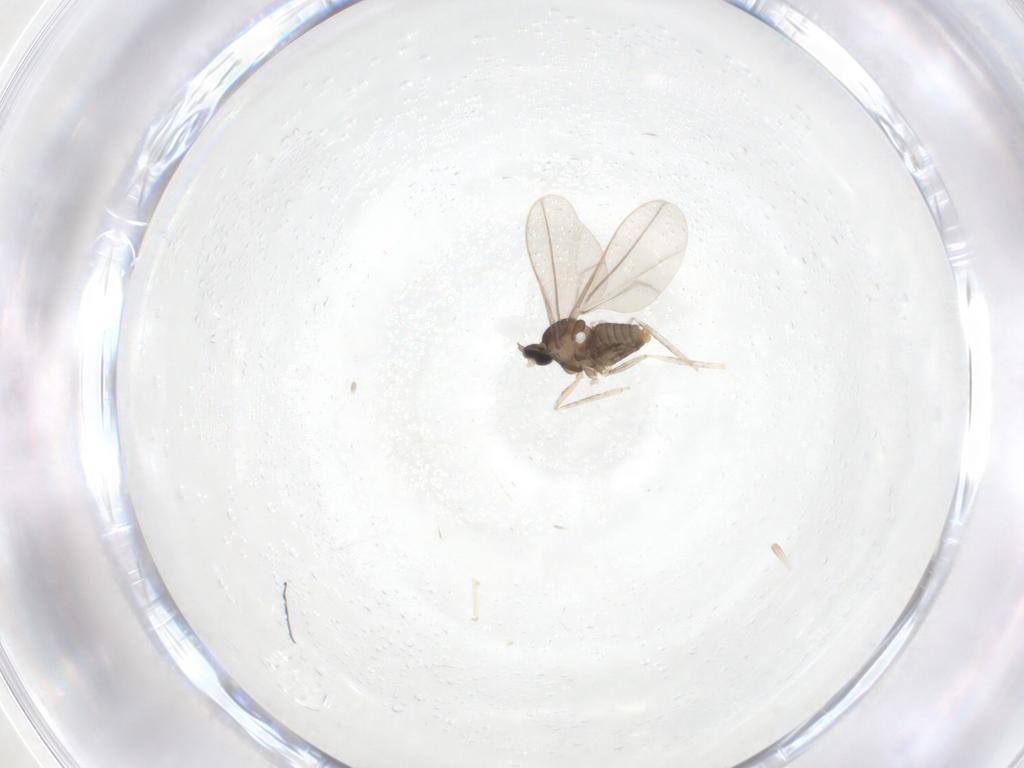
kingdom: Animalia
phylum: Arthropoda
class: Insecta
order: Diptera
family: Cecidomyiidae
